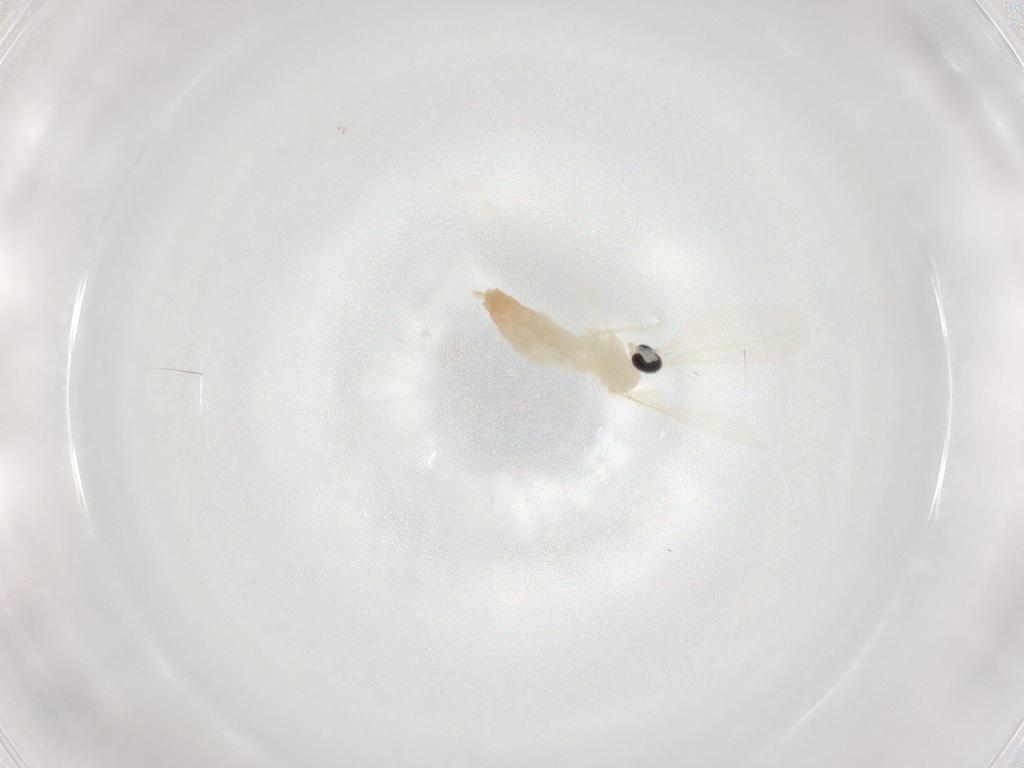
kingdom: Animalia
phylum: Arthropoda
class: Insecta
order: Diptera
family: Cecidomyiidae
